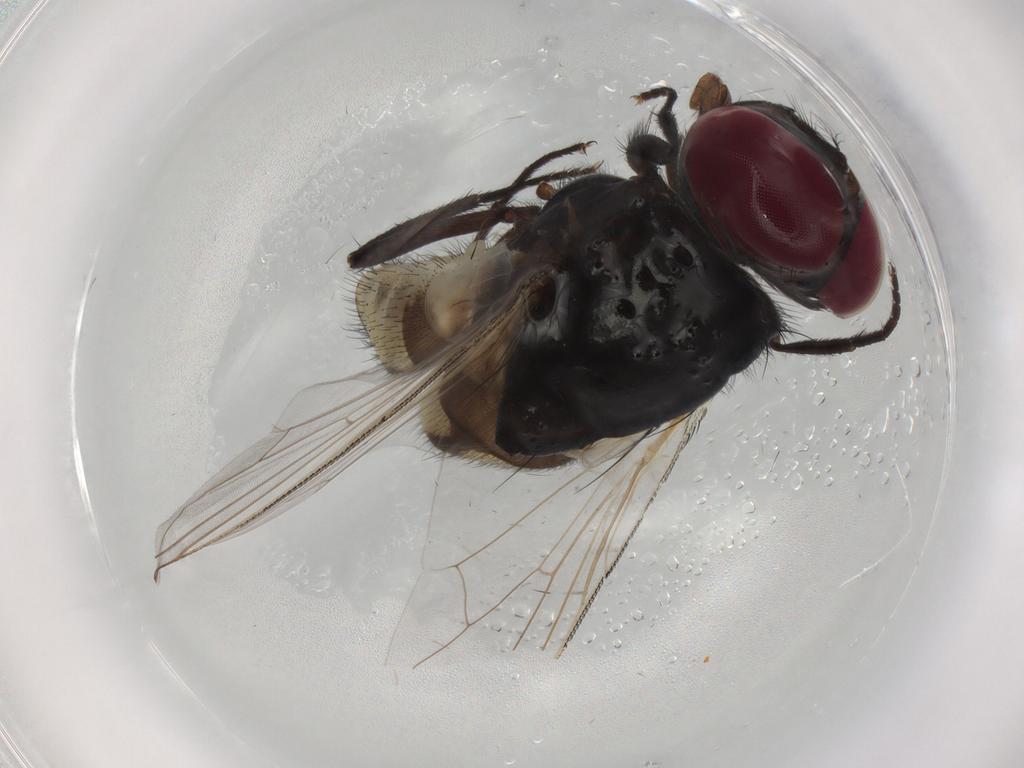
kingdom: Animalia
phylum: Arthropoda
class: Insecta
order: Diptera
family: Muscidae
